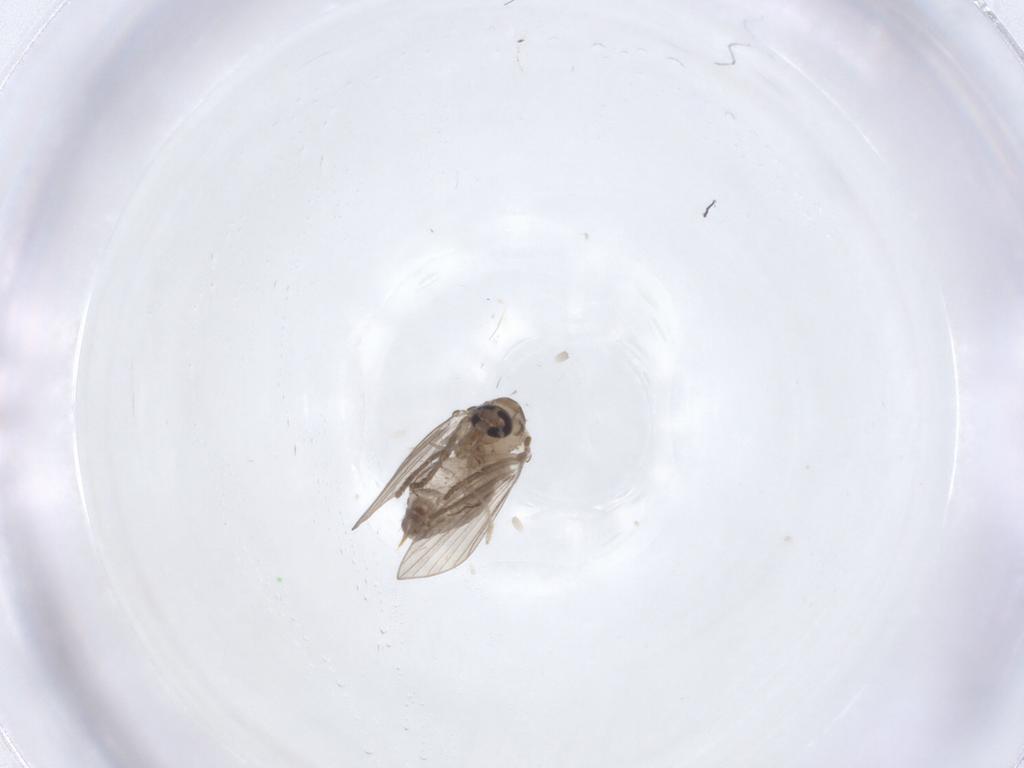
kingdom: Animalia
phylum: Arthropoda
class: Insecta
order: Diptera
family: Psychodidae
